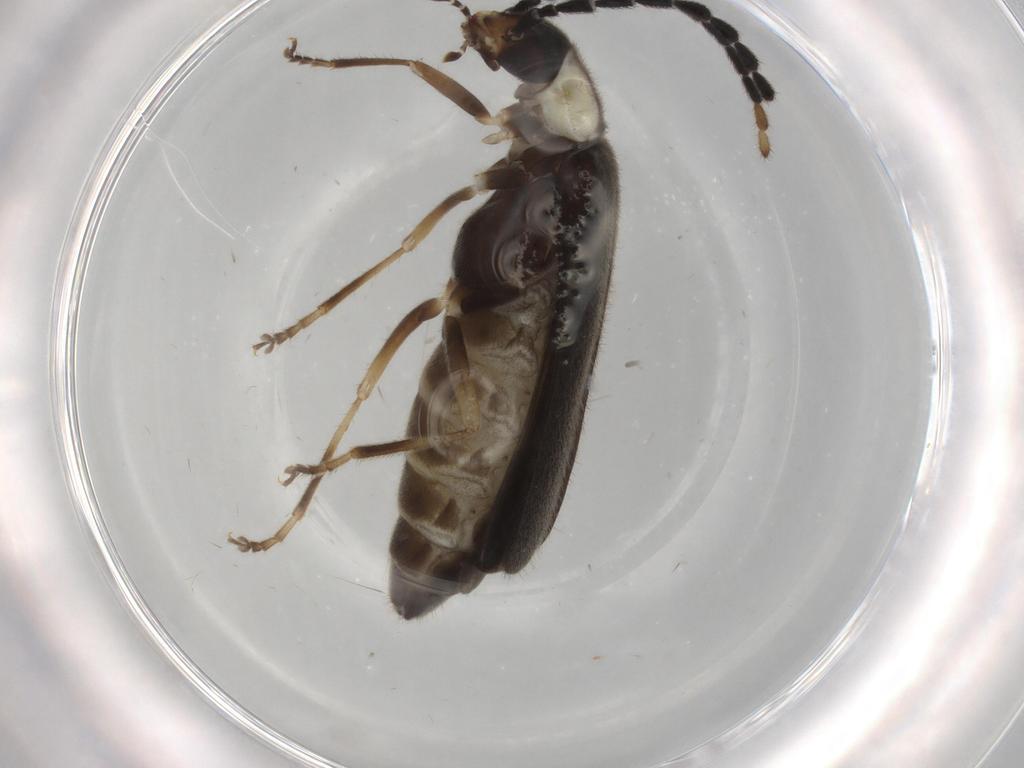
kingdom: Animalia
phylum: Arthropoda
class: Insecta
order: Coleoptera
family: Cantharidae
